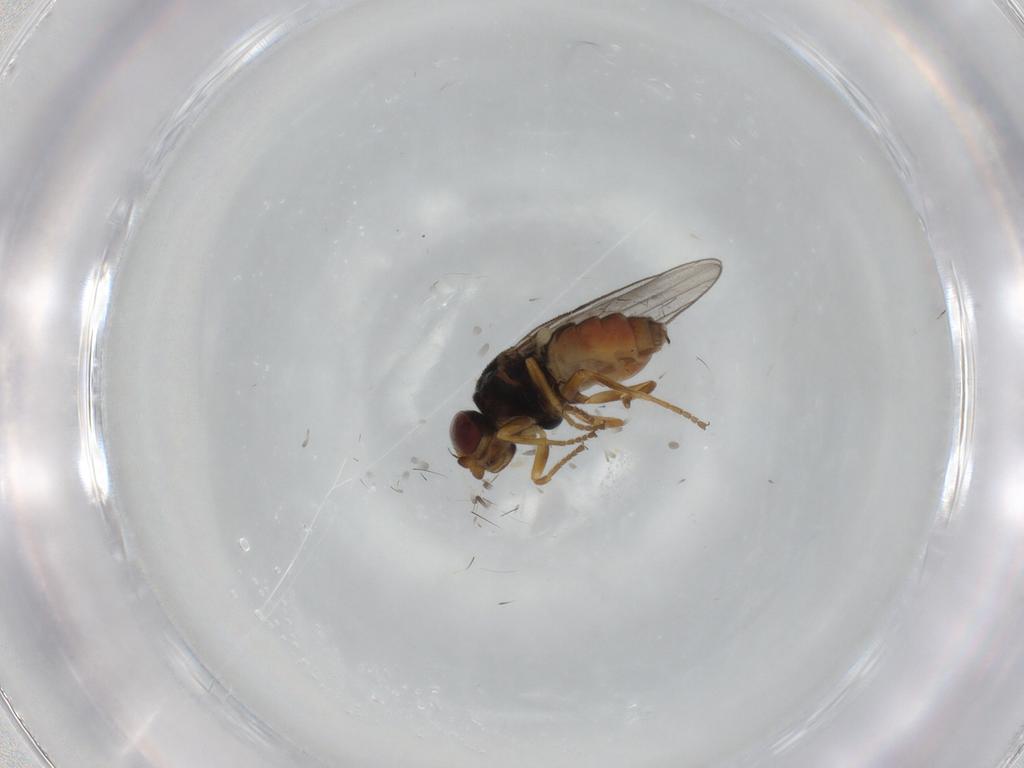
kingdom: Animalia
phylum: Arthropoda
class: Insecta
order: Diptera
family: Chloropidae
